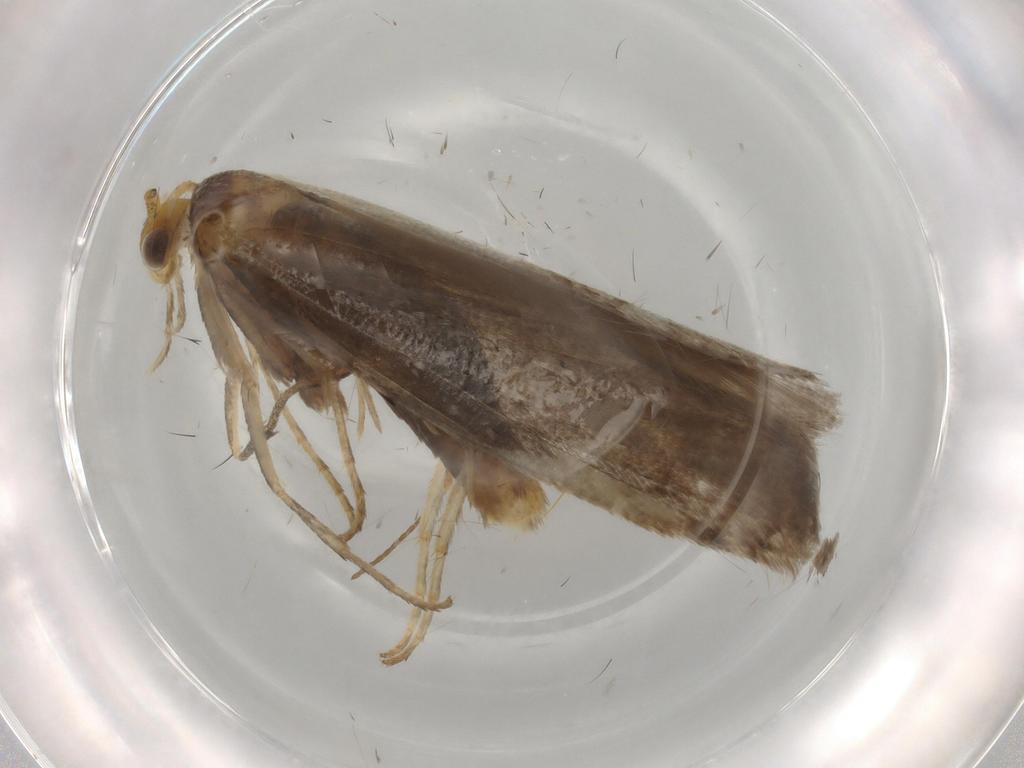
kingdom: Animalia
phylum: Arthropoda
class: Insecta
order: Lepidoptera
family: Argyresthiidae
